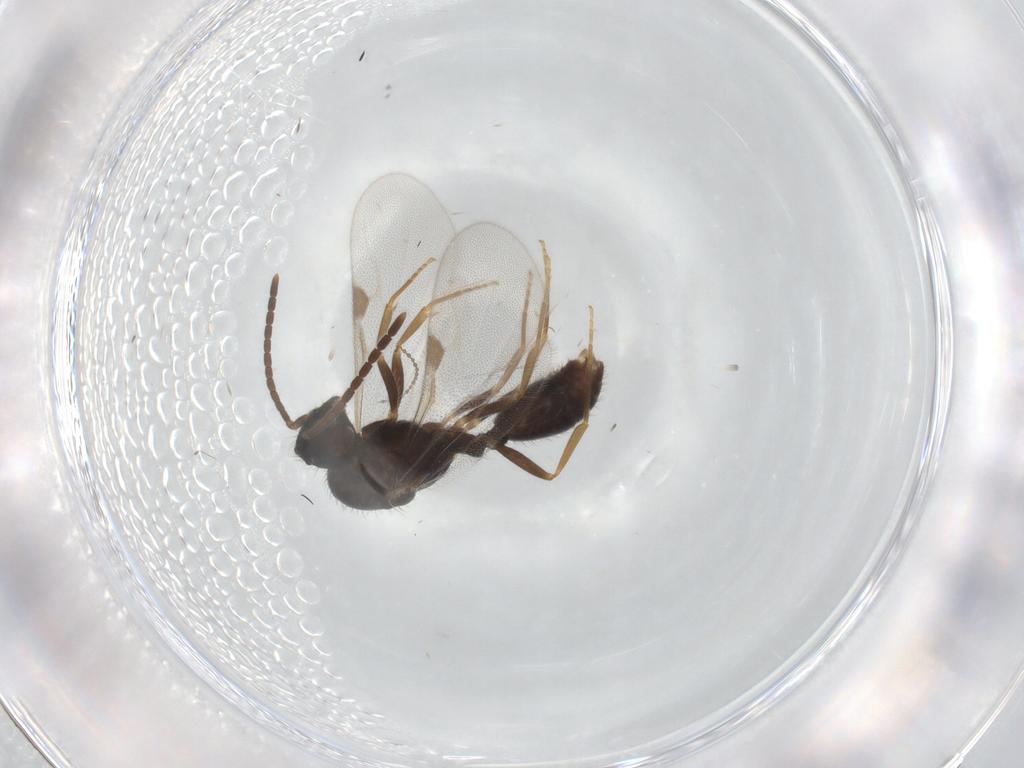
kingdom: Animalia
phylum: Arthropoda
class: Insecta
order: Hymenoptera
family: Formicidae
